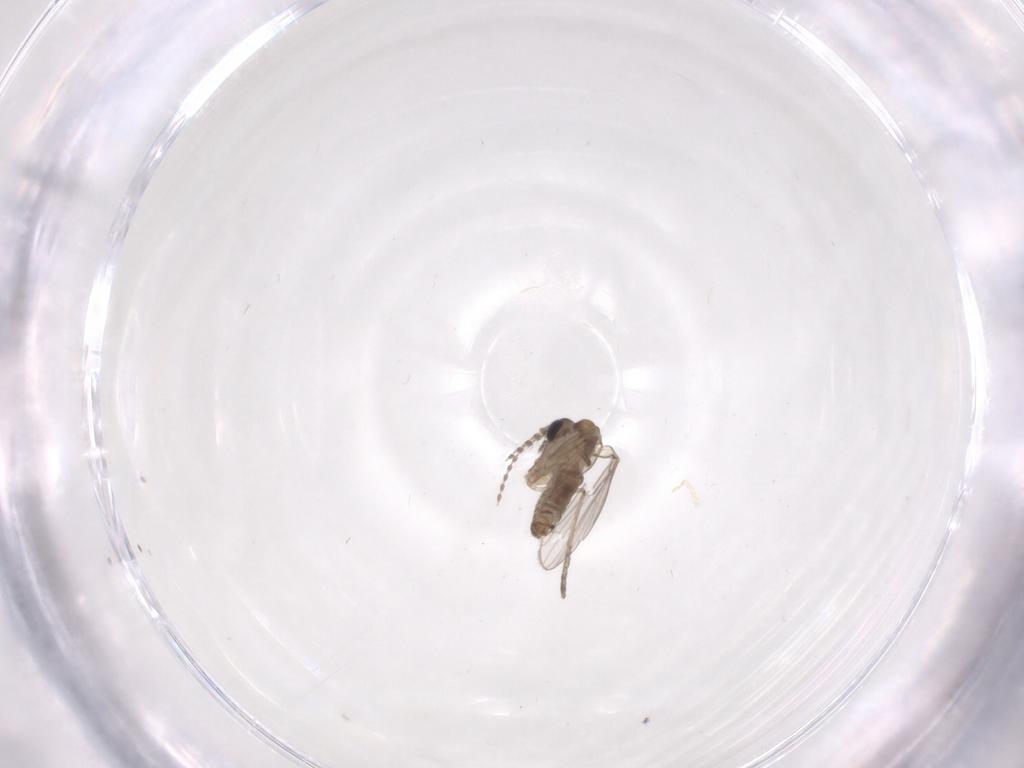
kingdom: Animalia
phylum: Arthropoda
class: Insecta
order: Diptera
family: Psychodidae
